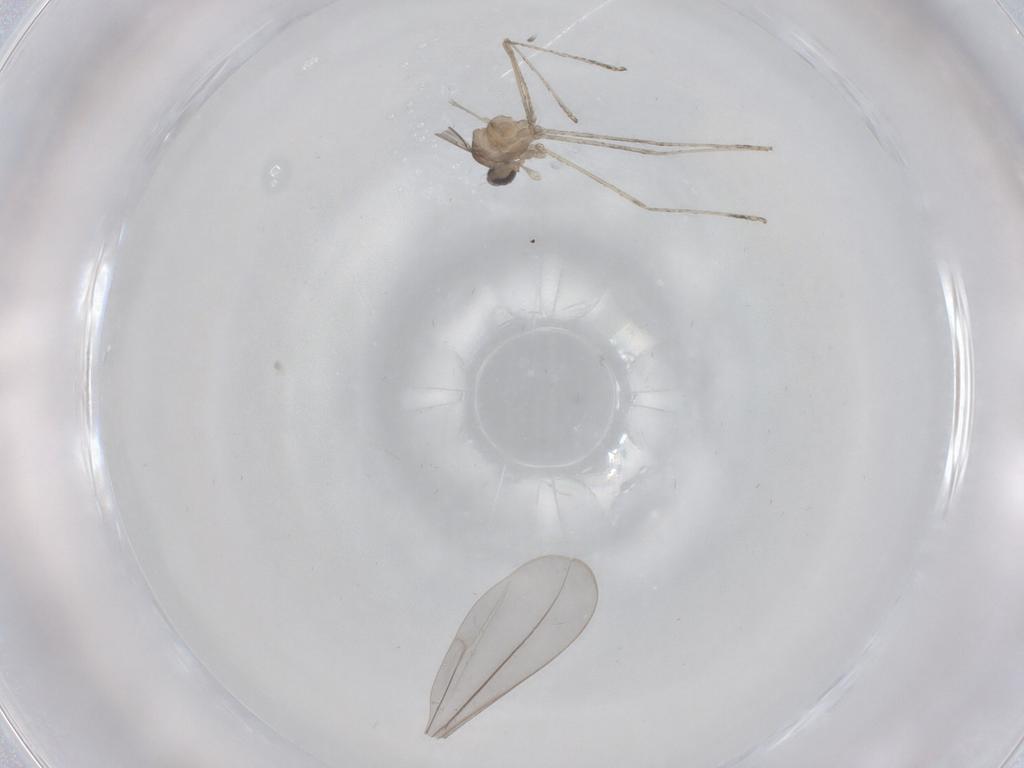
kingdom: Animalia
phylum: Arthropoda
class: Insecta
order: Diptera
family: Cecidomyiidae
